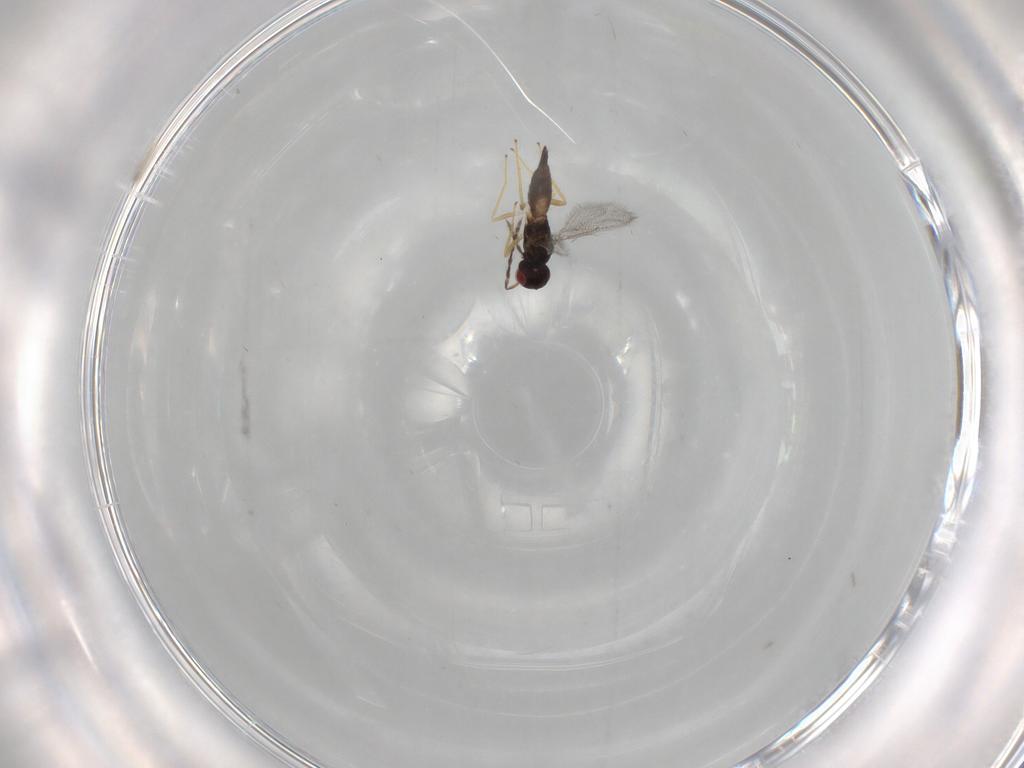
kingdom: Animalia
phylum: Arthropoda
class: Insecta
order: Hymenoptera
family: Eulophidae
